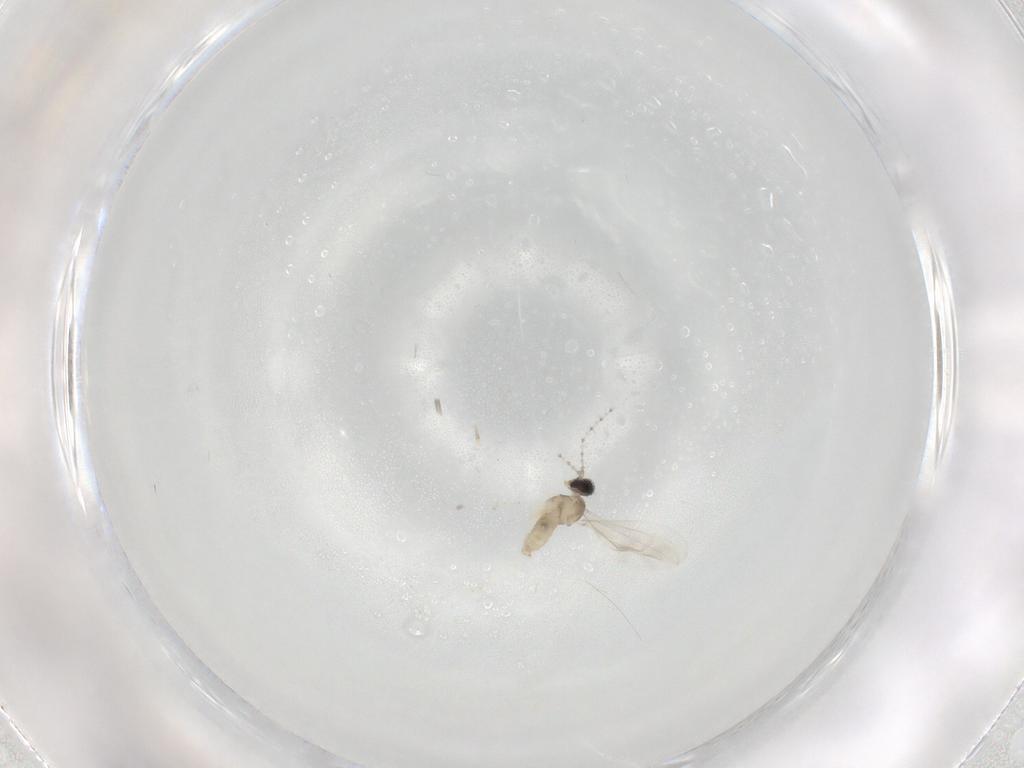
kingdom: Animalia
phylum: Arthropoda
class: Insecta
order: Diptera
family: Cecidomyiidae
